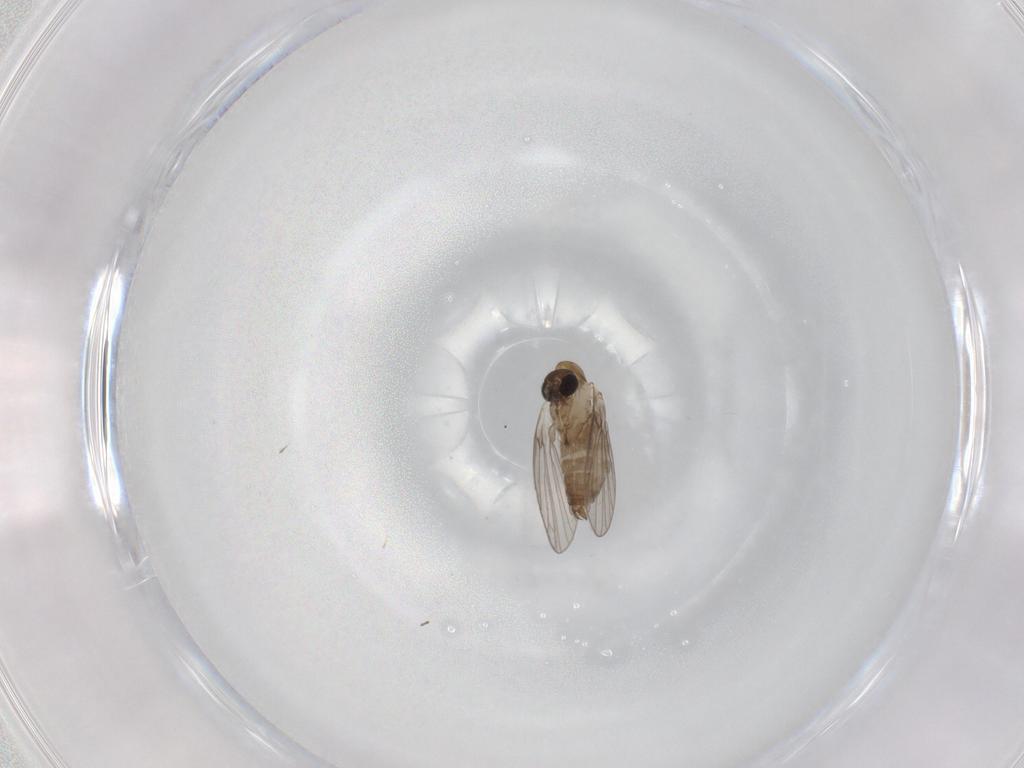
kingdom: Animalia
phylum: Arthropoda
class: Insecta
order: Diptera
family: Psychodidae
